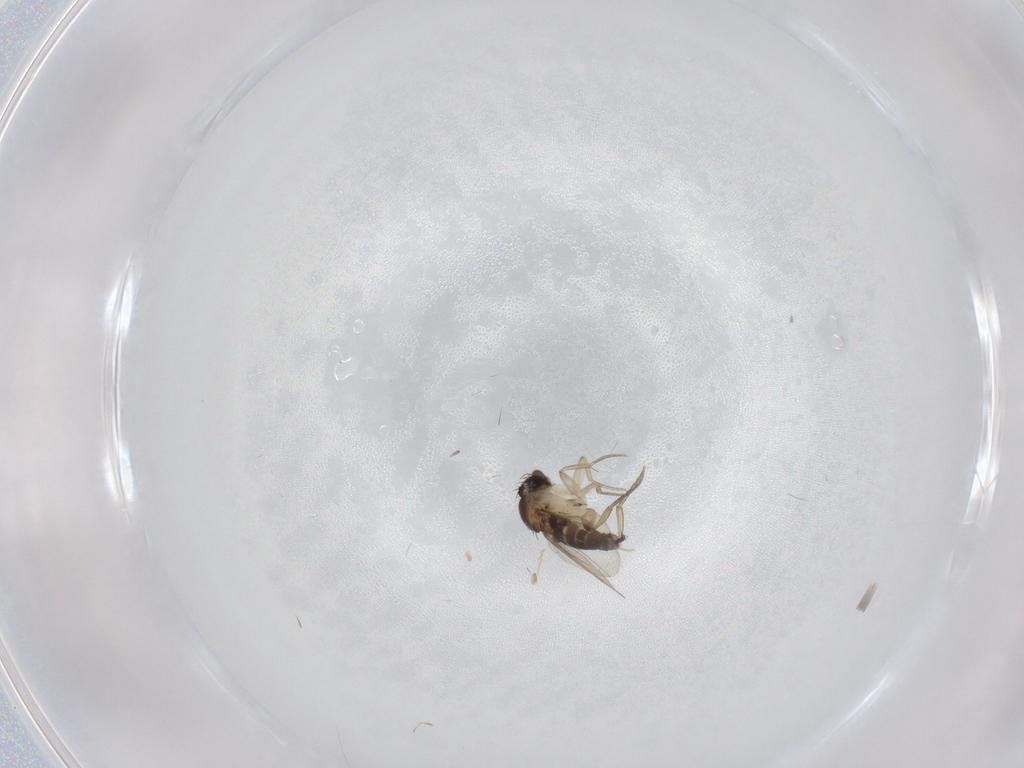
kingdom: Animalia
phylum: Arthropoda
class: Insecta
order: Diptera
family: Phoridae
